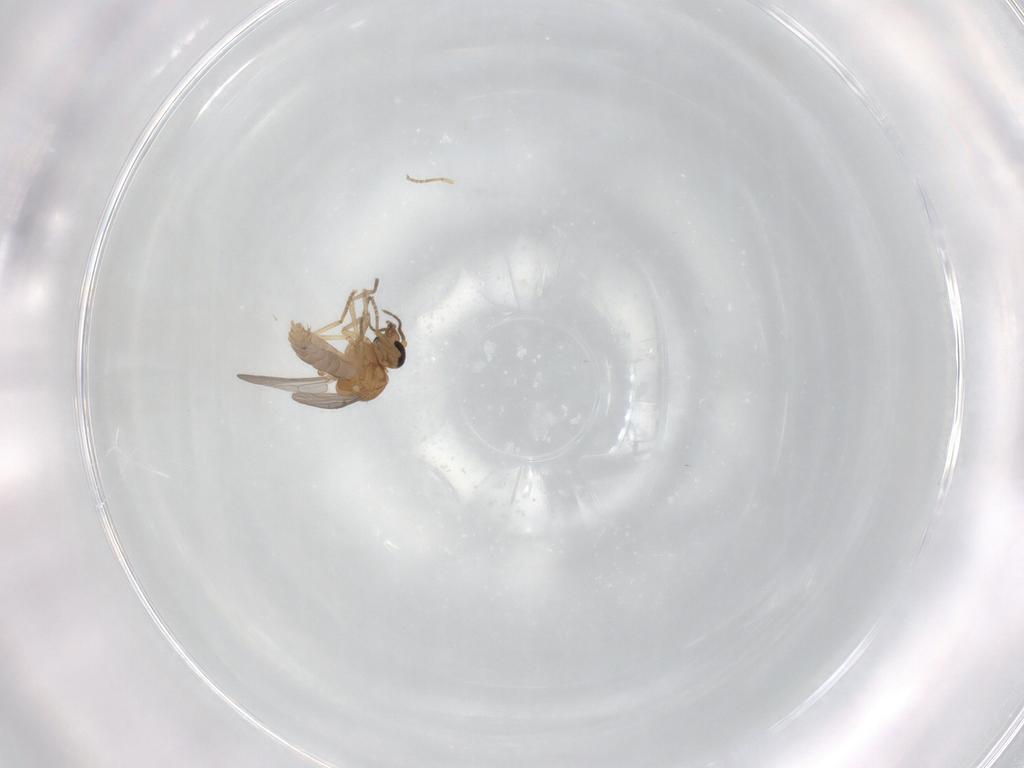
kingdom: Animalia
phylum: Arthropoda
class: Insecta
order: Diptera
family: Ceratopogonidae
